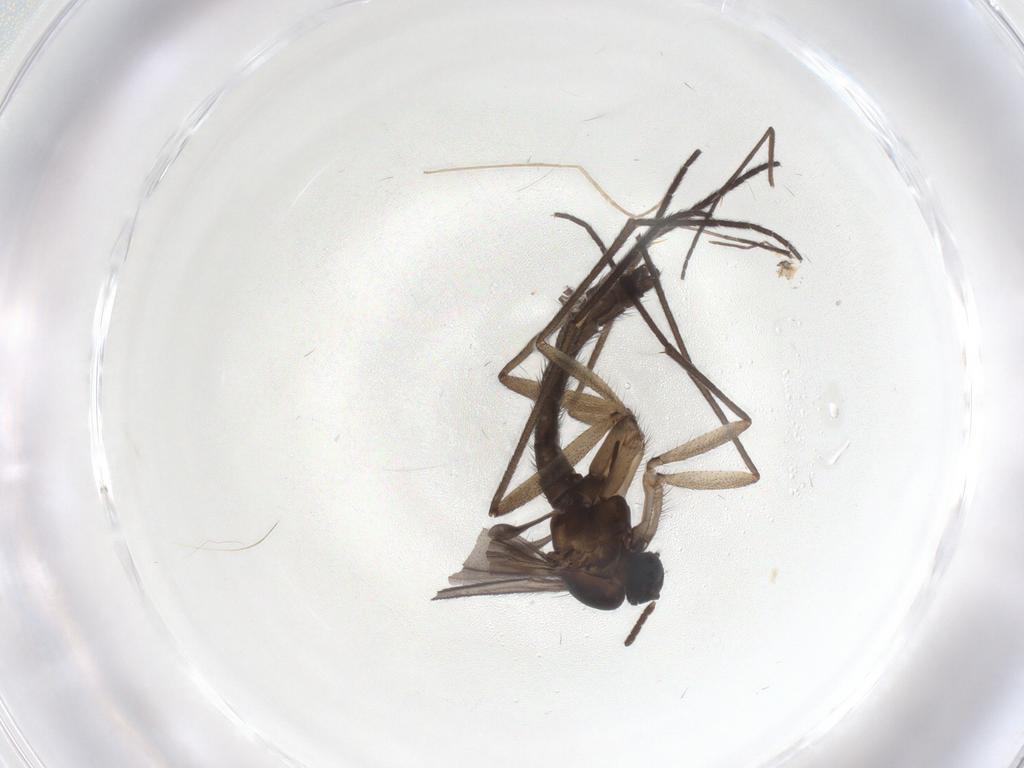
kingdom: Animalia
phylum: Arthropoda
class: Insecta
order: Diptera
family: Sciaridae
